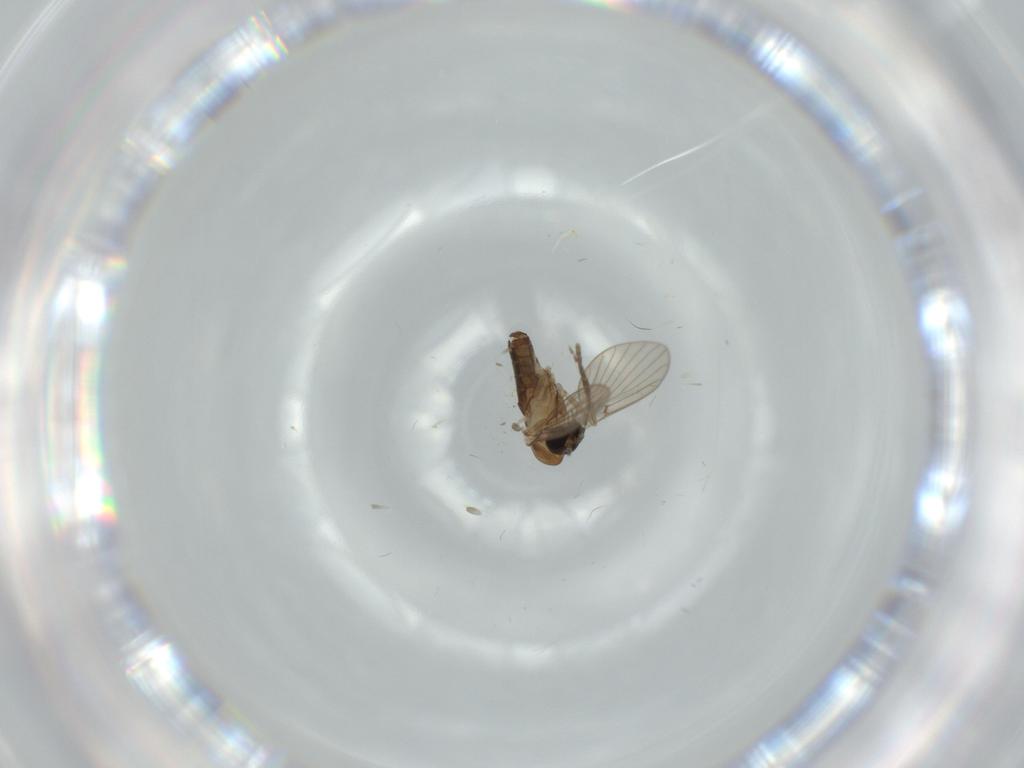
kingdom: Animalia
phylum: Arthropoda
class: Insecta
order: Diptera
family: Psychodidae
